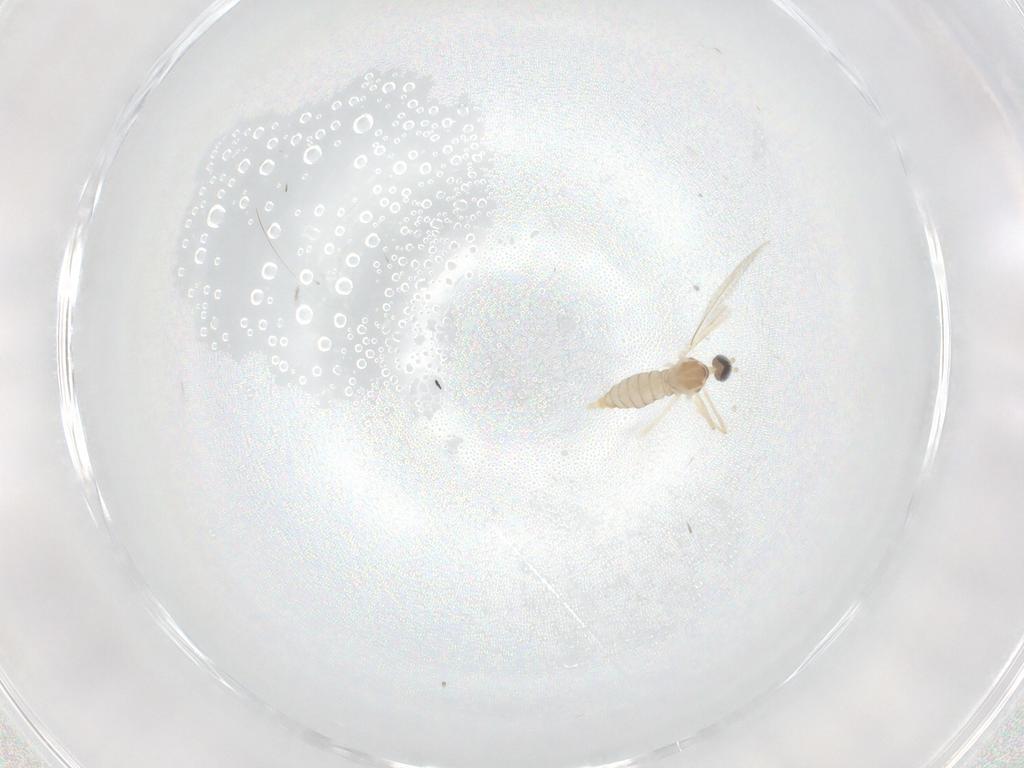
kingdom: Animalia
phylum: Arthropoda
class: Insecta
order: Diptera
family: Cecidomyiidae
